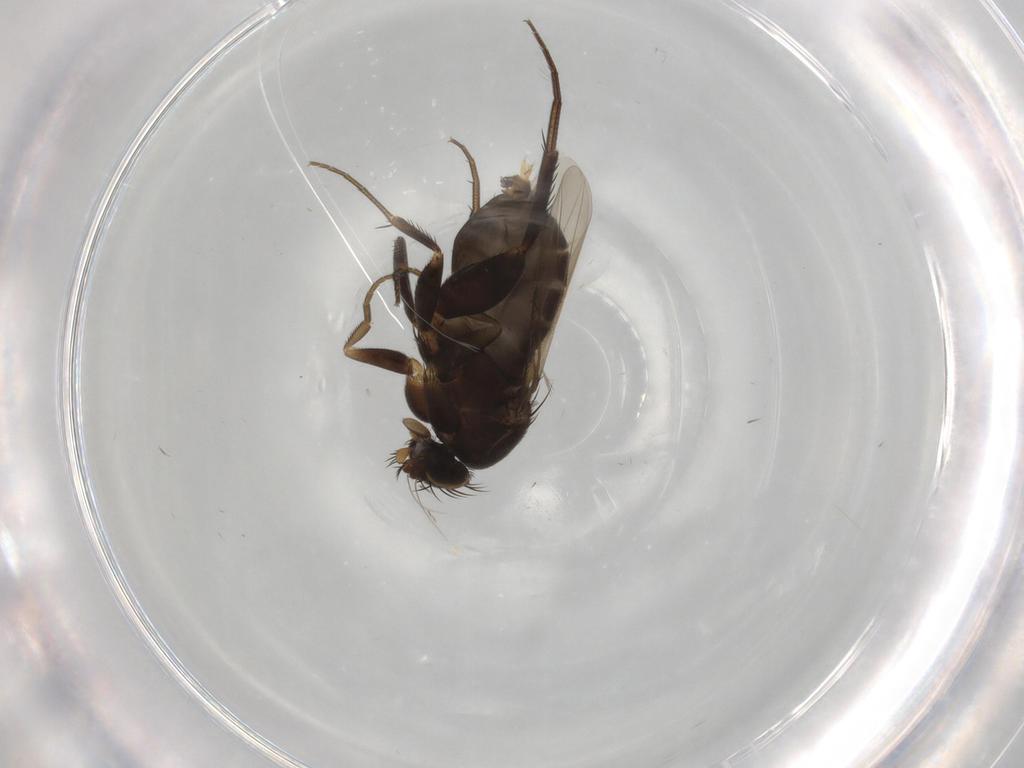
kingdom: Animalia
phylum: Arthropoda
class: Insecta
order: Diptera
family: Phoridae
